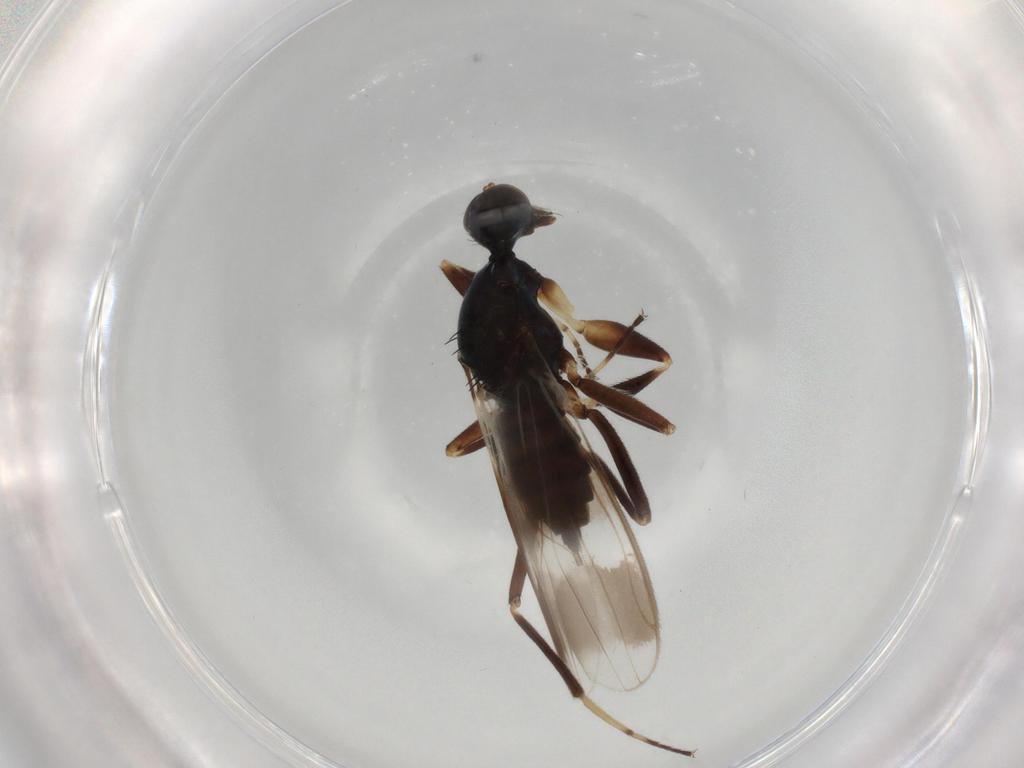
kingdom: Animalia
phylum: Arthropoda
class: Insecta
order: Diptera
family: Hybotidae
